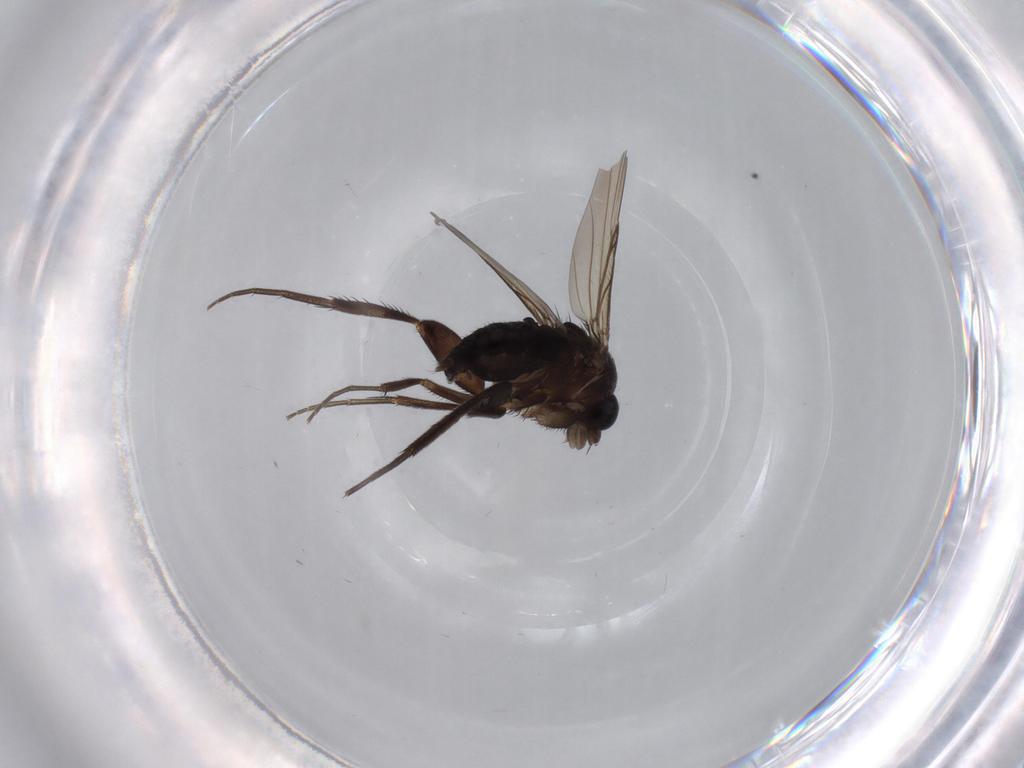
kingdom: Animalia
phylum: Arthropoda
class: Insecta
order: Diptera
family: Phoridae
